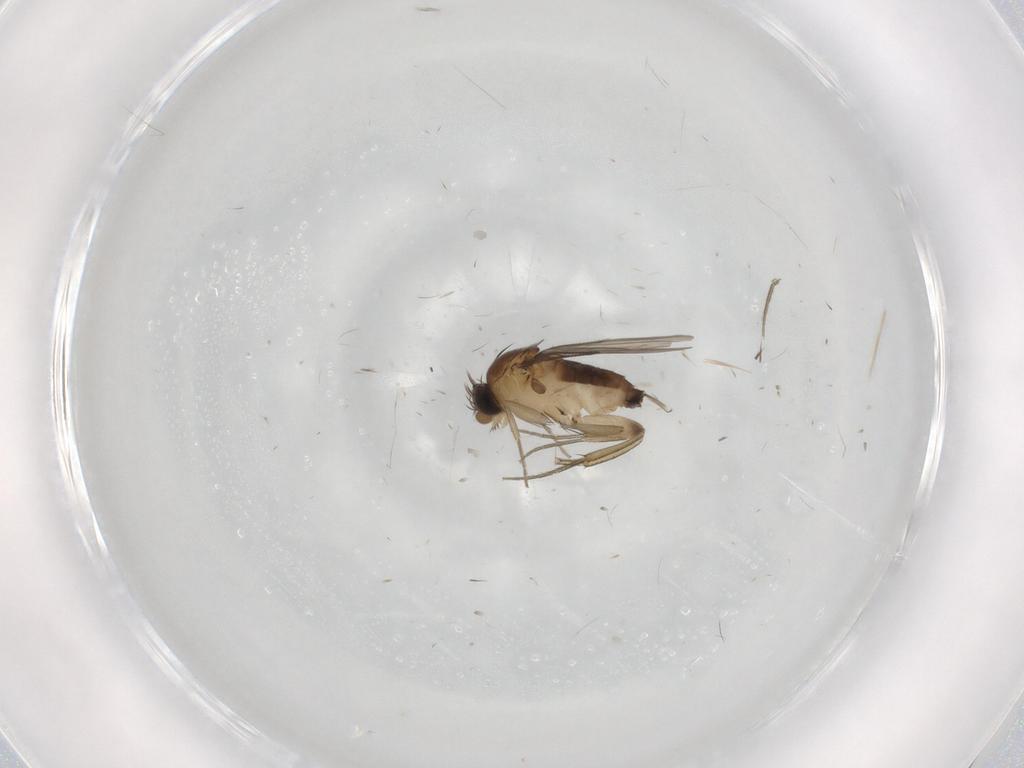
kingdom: Animalia
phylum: Arthropoda
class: Insecta
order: Diptera
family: Phoridae
